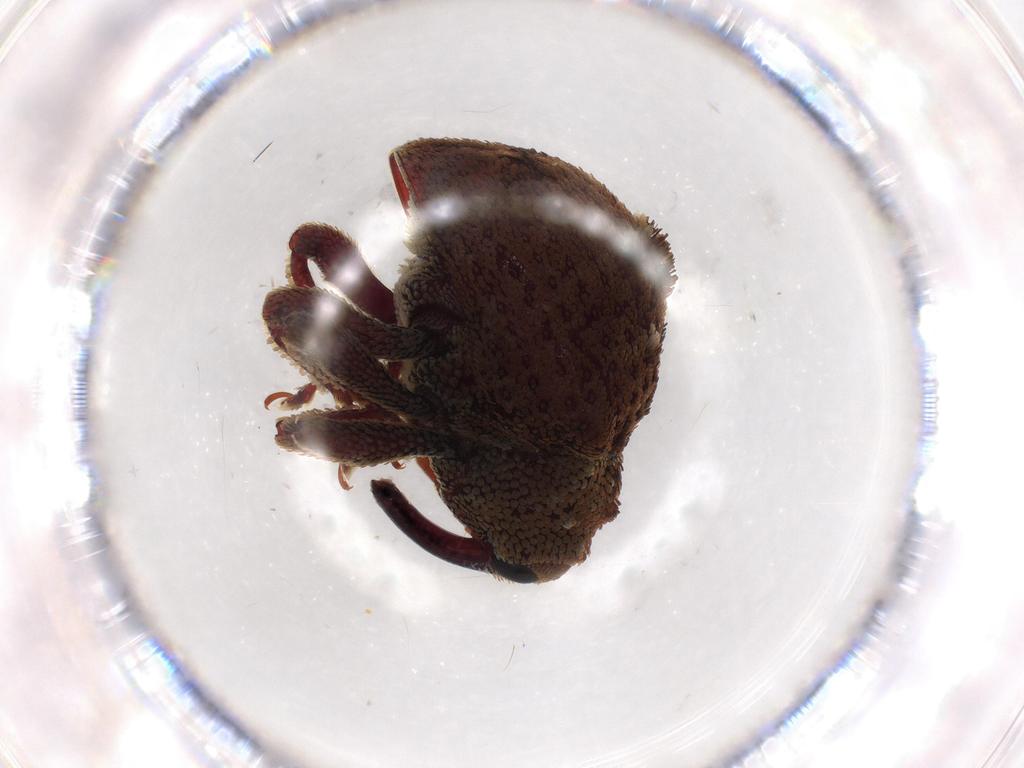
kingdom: Animalia
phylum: Arthropoda
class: Insecta
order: Coleoptera
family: Curculionidae
